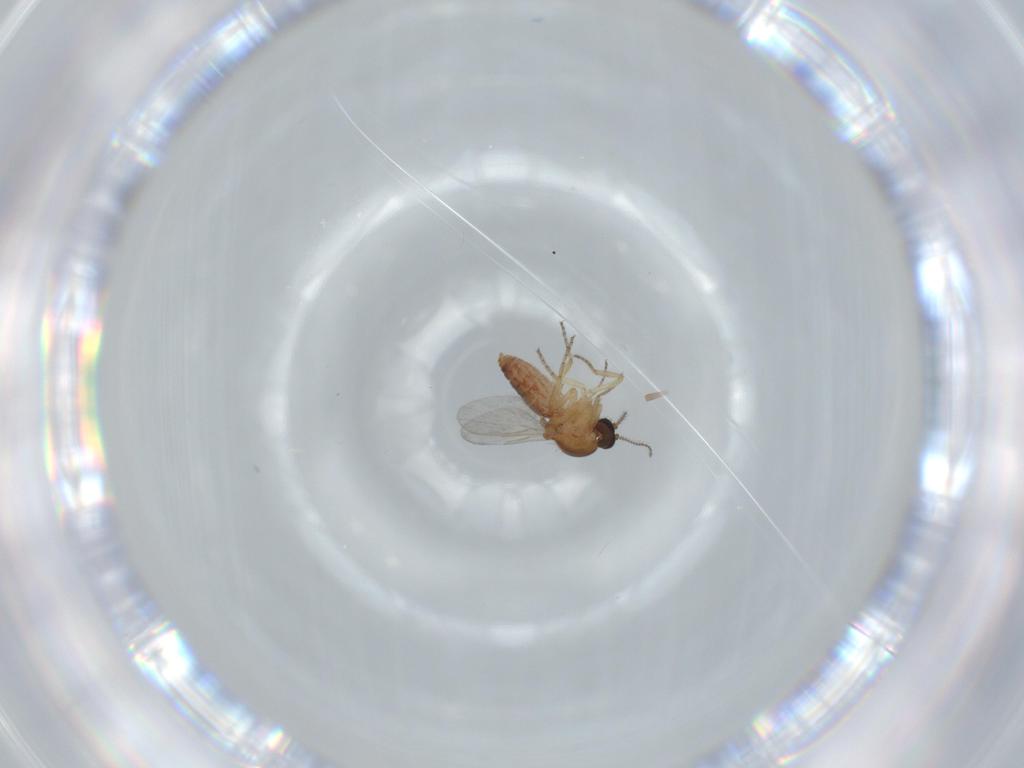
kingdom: Animalia
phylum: Arthropoda
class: Insecta
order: Diptera
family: Ceratopogonidae
